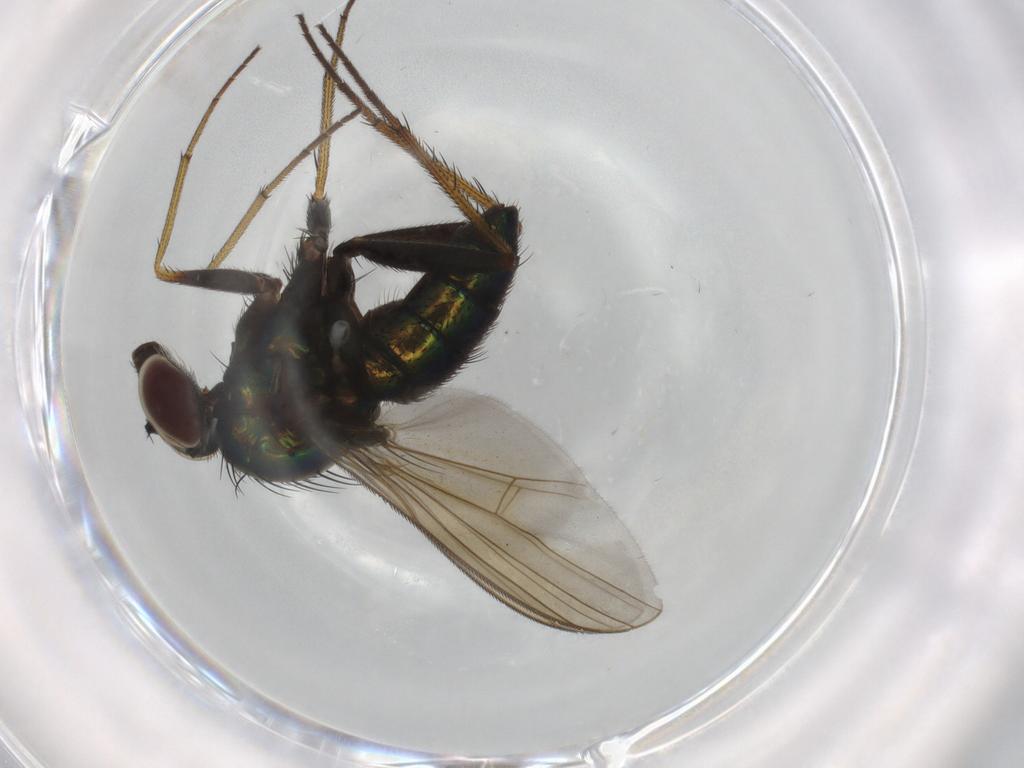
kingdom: Animalia
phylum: Arthropoda
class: Insecta
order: Diptera
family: Dolichopodidae
